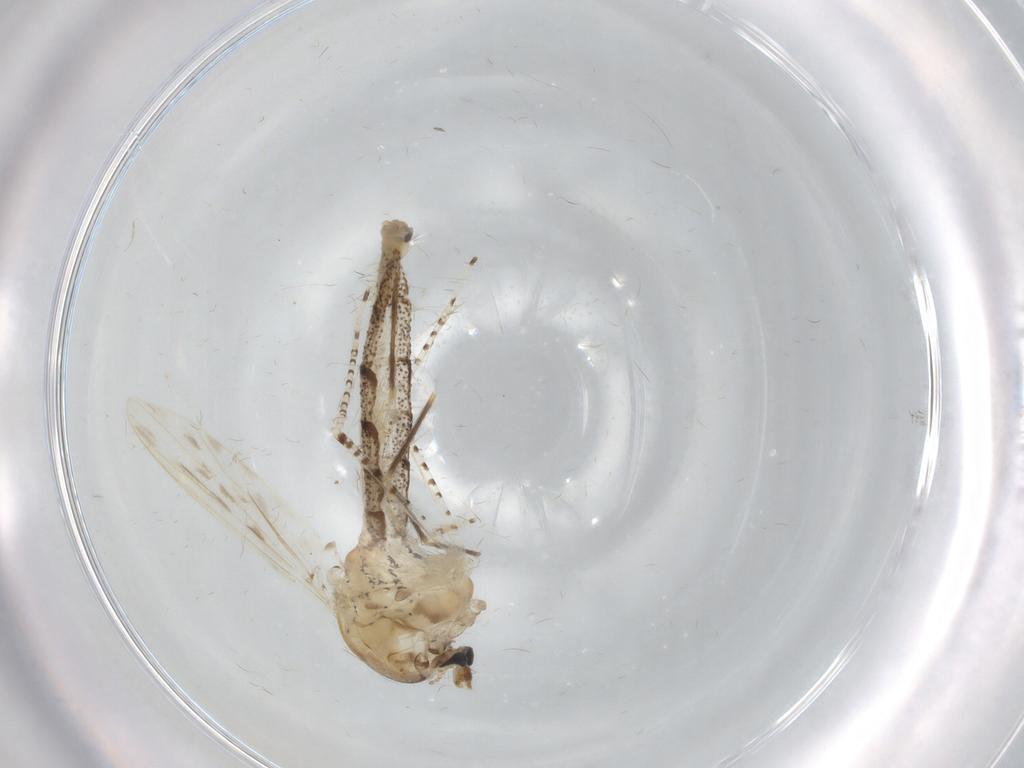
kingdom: Animalia
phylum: Arthropoda
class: Insecta
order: Diptera
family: Chaoboridae
